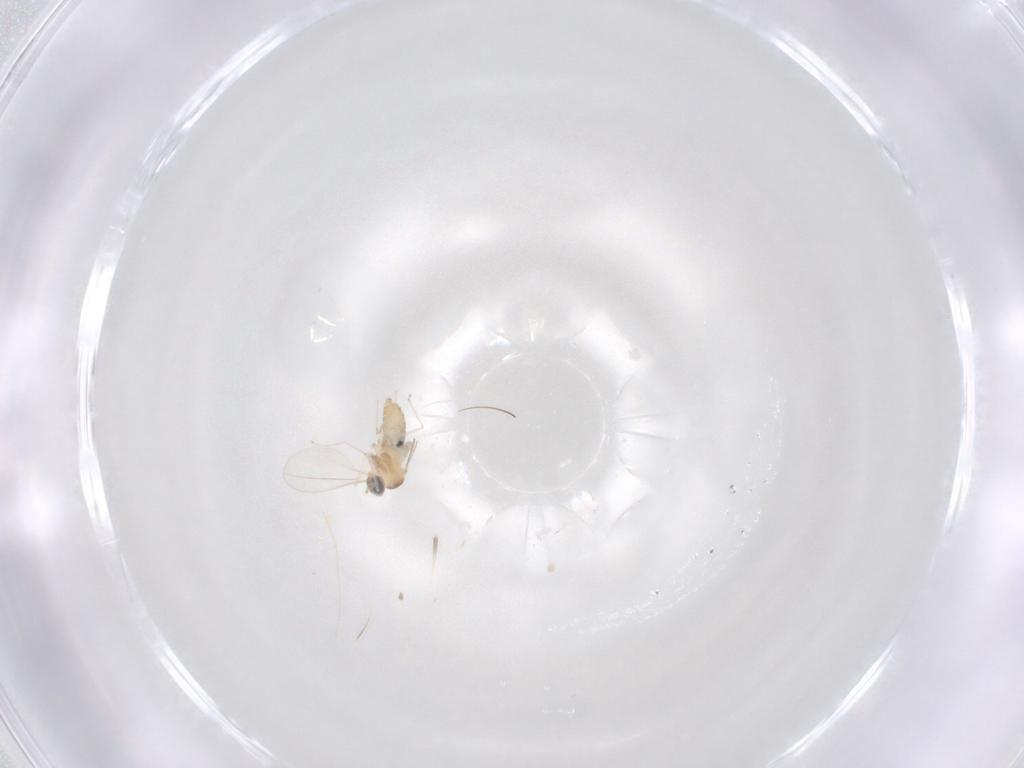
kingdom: Animalia
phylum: Arthropoda
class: Insecta
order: Diptera
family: Cecidomyiidae
